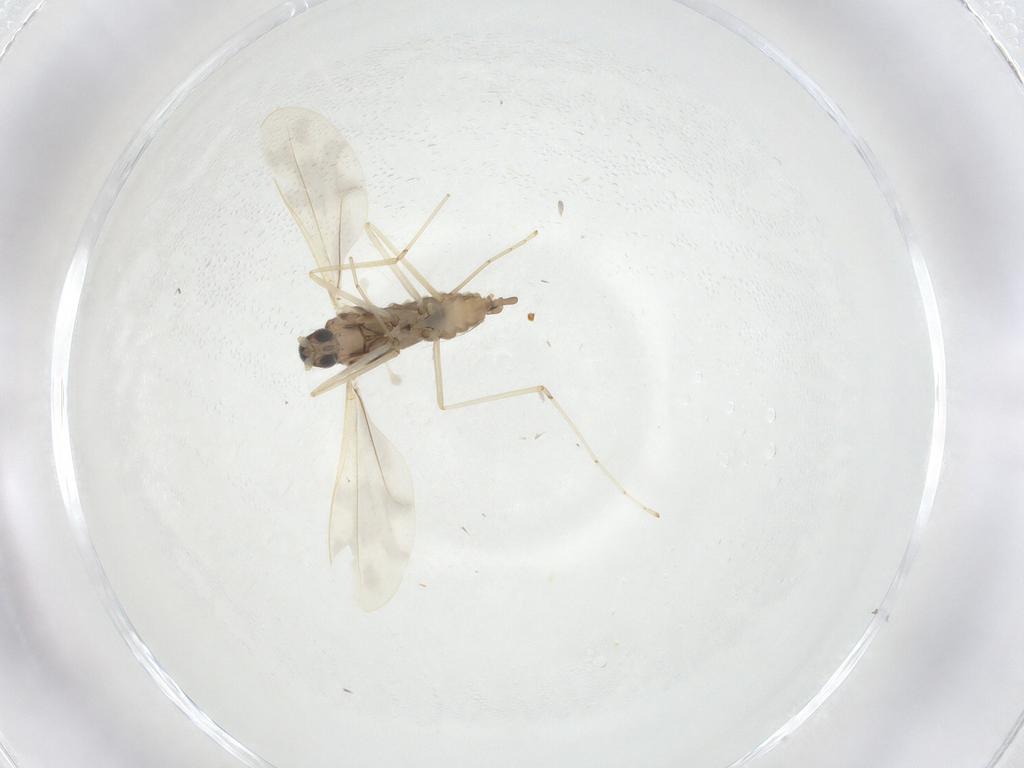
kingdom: Animalia
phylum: Arthropoda
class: Insecta
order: Diptera
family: Cecidomyiidae
